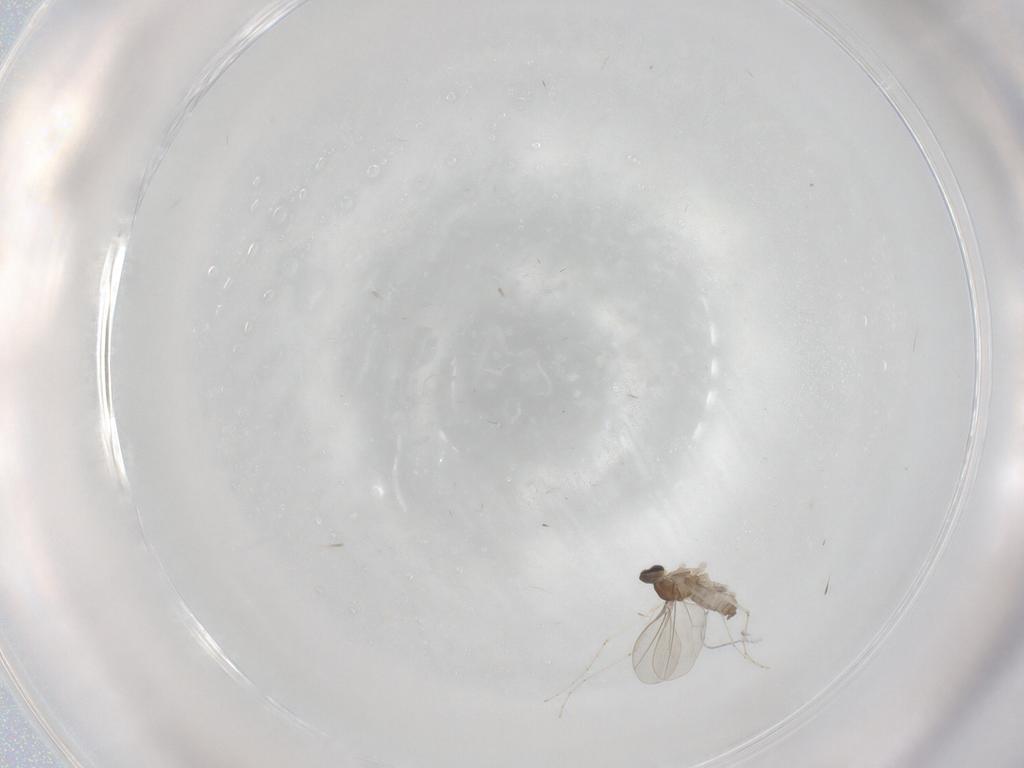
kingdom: Animalia
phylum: Arthropoda
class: Insecta
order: Diptera
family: Cecidomyiidae
